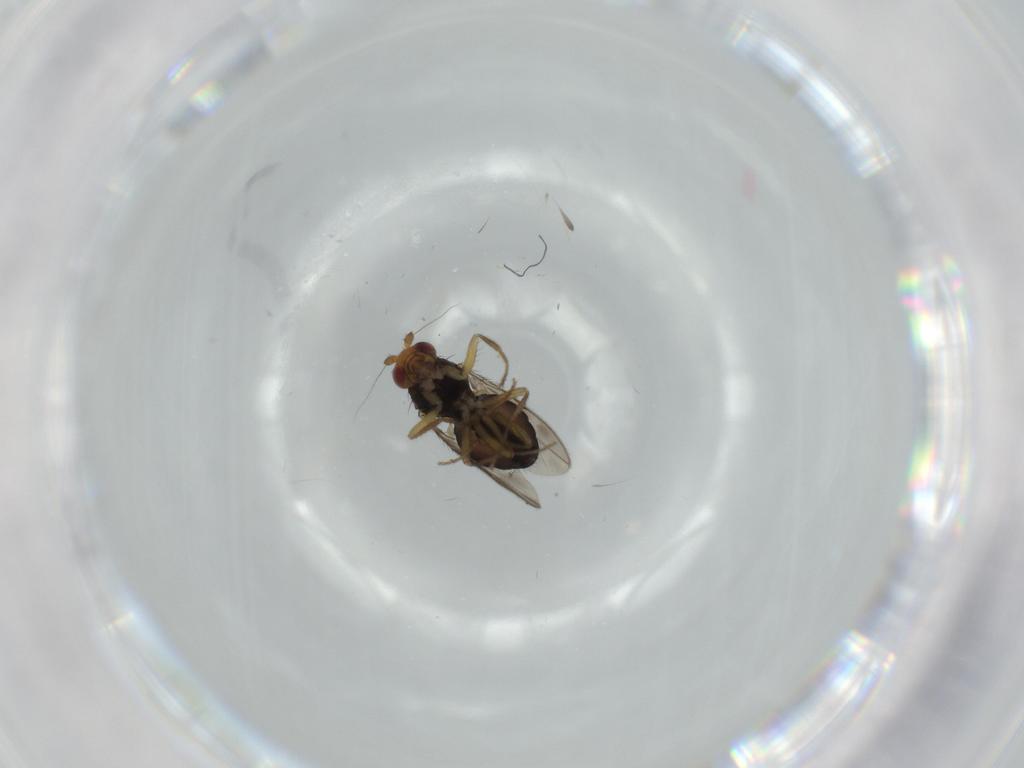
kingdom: Animalia
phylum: Arthropoda
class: Insecta
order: Diptera
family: Sphaeroceridae
